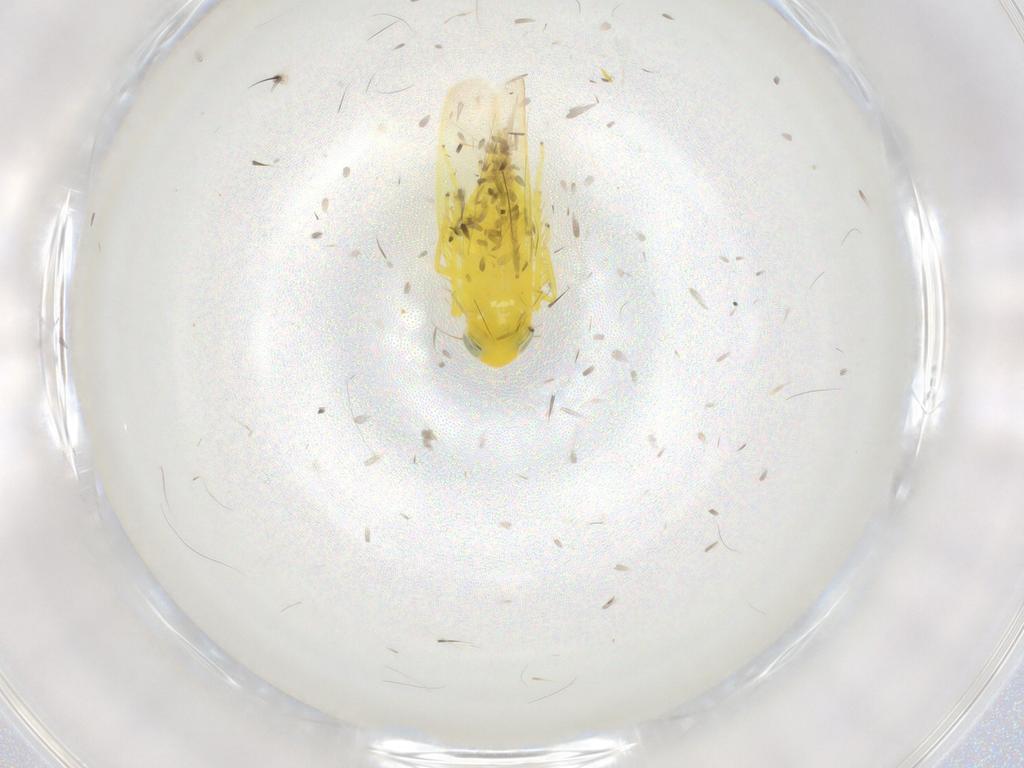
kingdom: Animalia
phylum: Arthropoda
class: Insecta
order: Hemiptera
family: Cicadellidae
